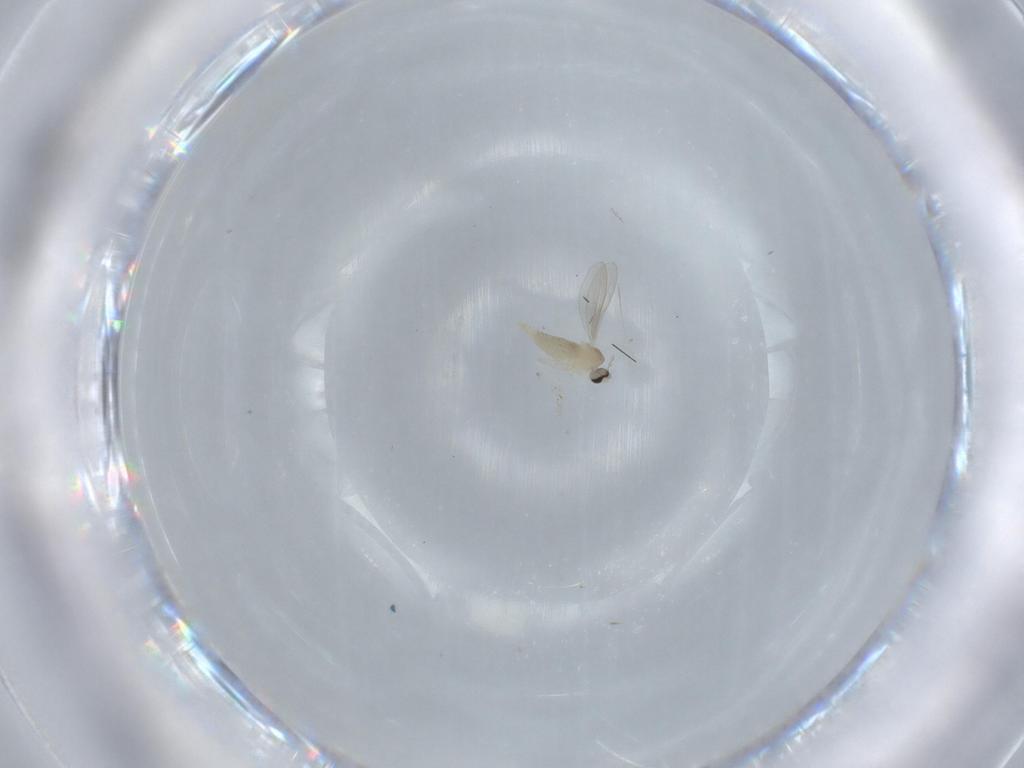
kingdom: Animalia
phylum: Arthropoda
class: Insecta
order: Diptera
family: Cecidomyiidae
